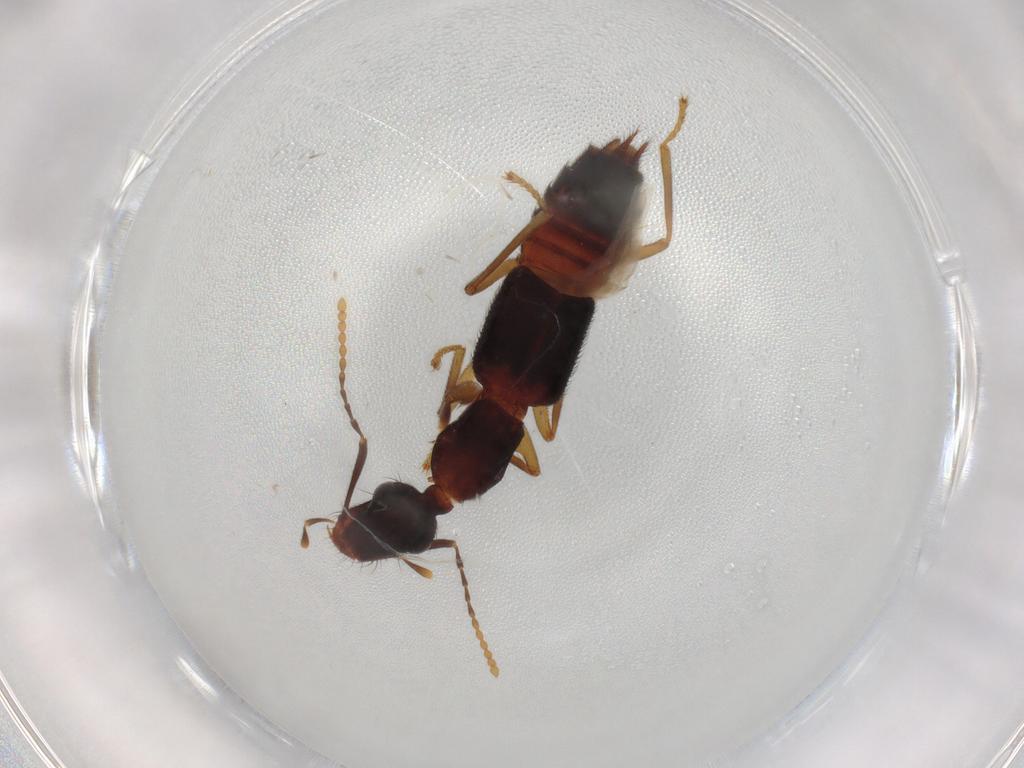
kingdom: Animalia
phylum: Arthropoda
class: Insecta
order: Coleoptera
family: Staphylinidae
